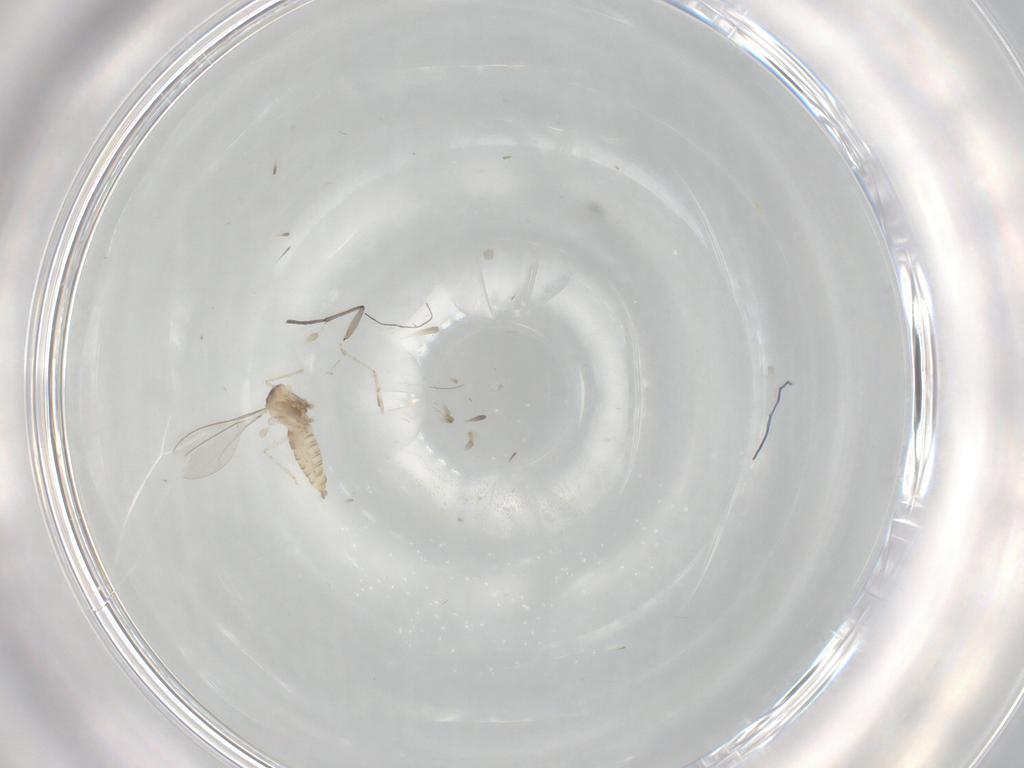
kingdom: Animalia
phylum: Arthropoda
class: Insecta
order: Diptera
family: Cecidomyiidae
